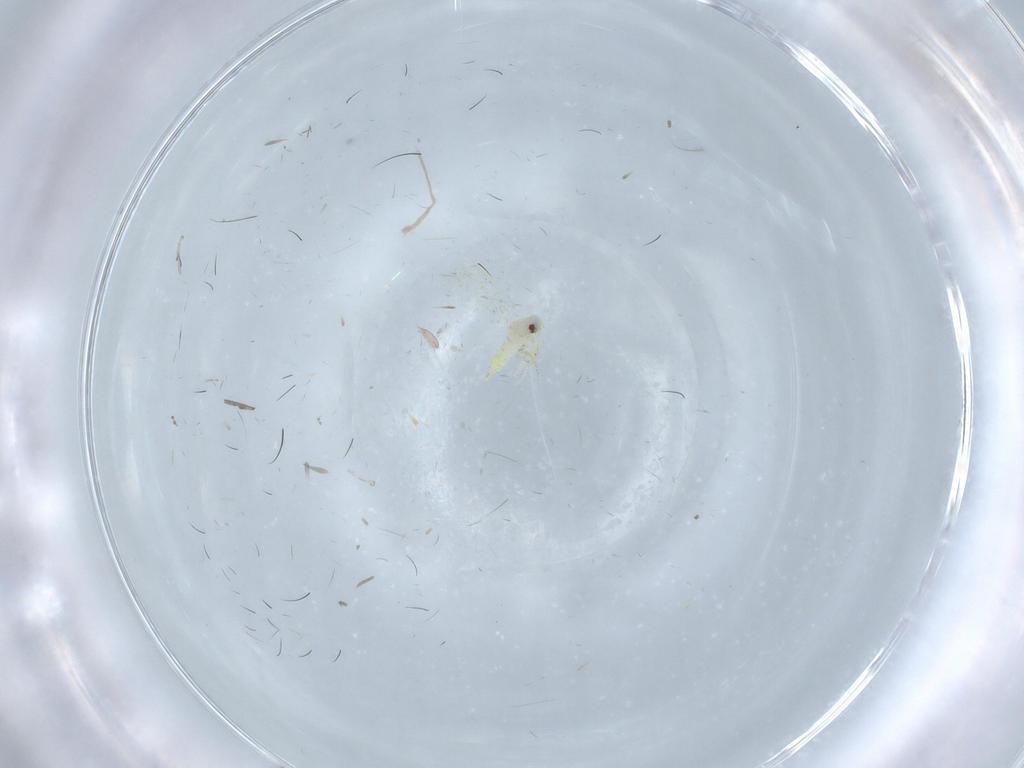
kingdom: Animalia
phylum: Arthropoda
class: Insecta
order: Hemiptera
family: Aleyrodidae
